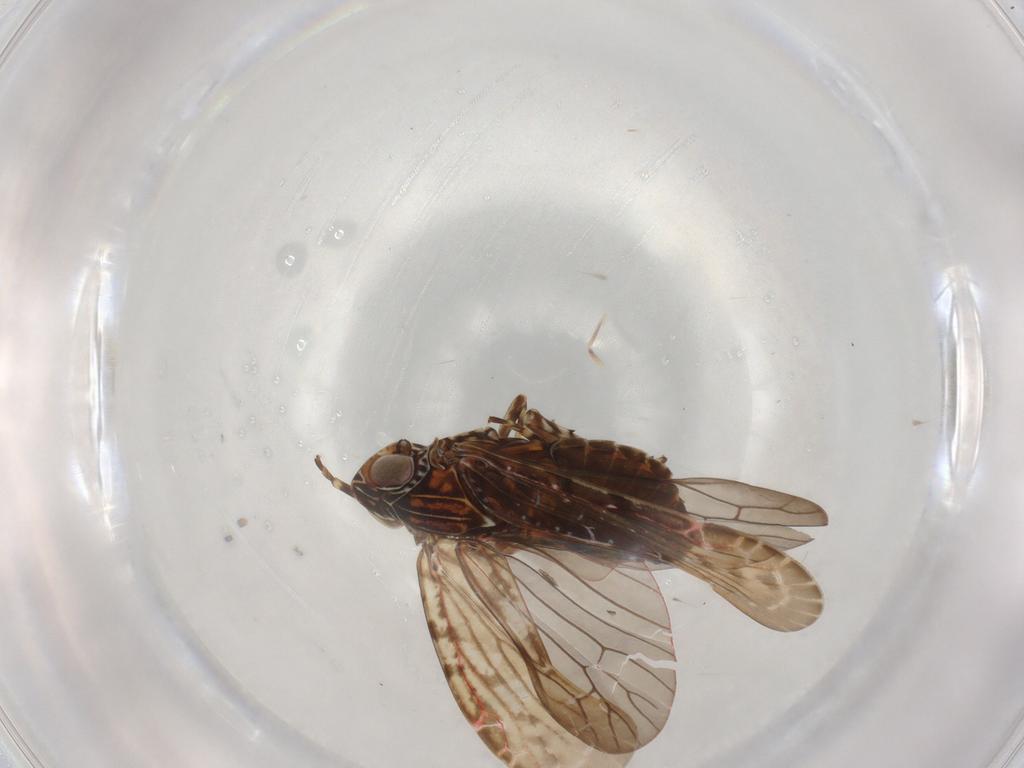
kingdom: Animalia
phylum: Arthropoda
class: Insecta
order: Hemiptera
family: Achilidae
